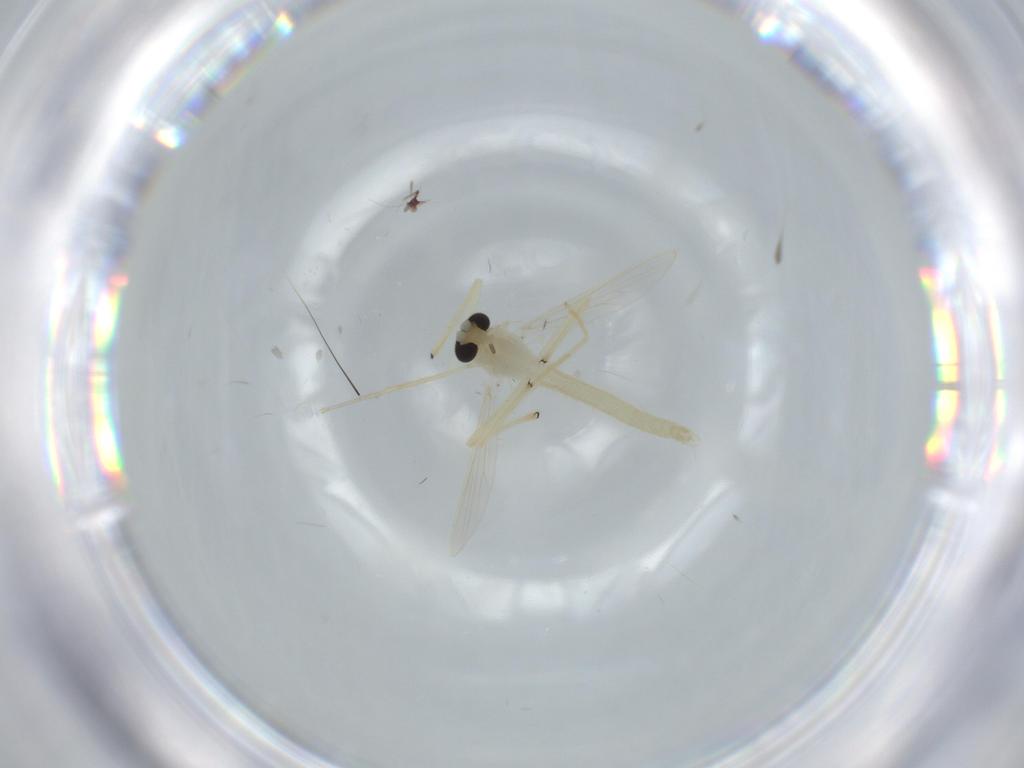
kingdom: Animalia
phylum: Arthropoda
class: Insecta
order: Diptera
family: Chironomidae
